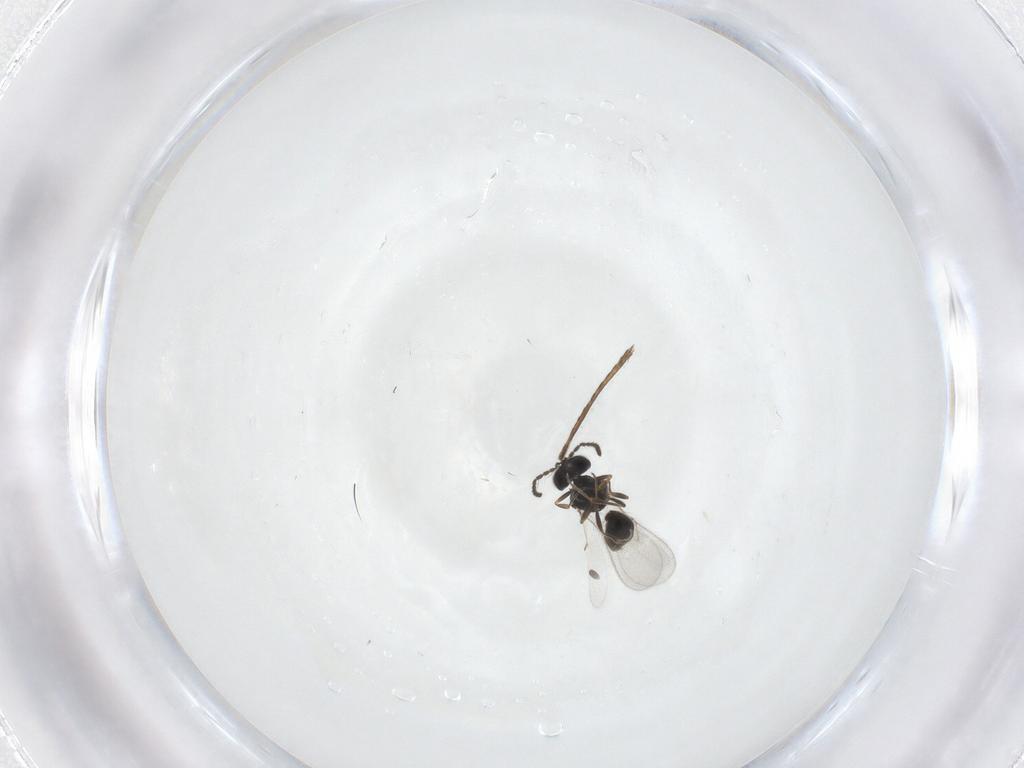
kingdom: Animalia
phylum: Arthropoda
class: Insecta
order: Hymenoptera
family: Scelionidae
